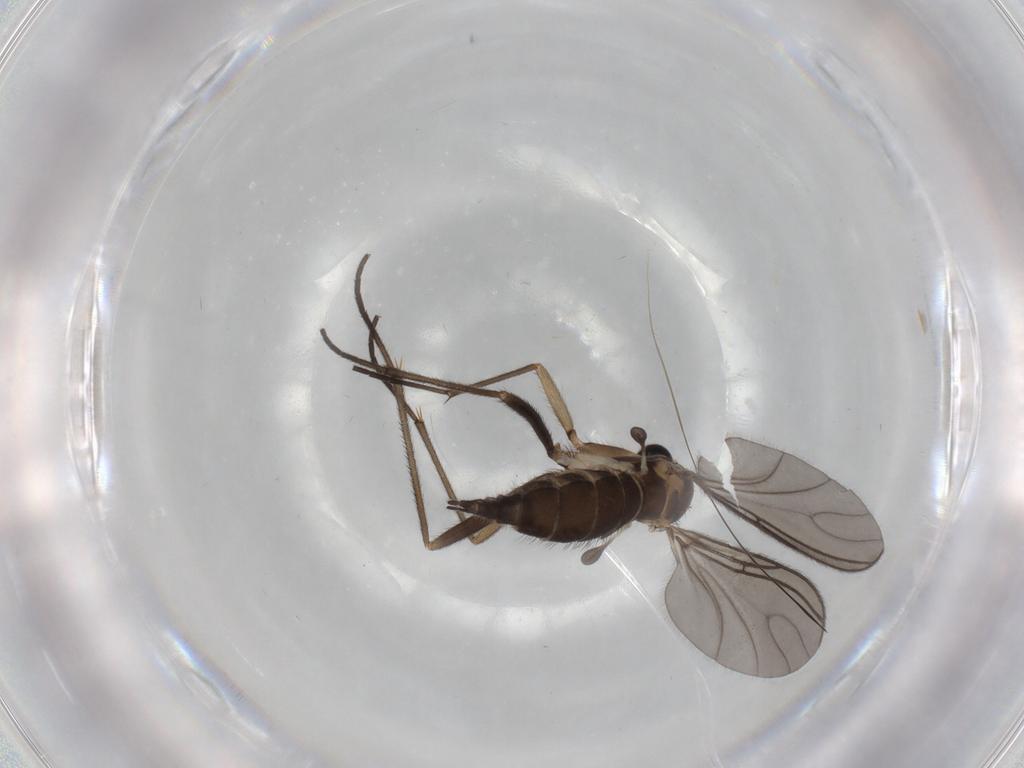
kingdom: Animalia
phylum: Arthropoda
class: Insecta
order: Diptera
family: Sciaridae
